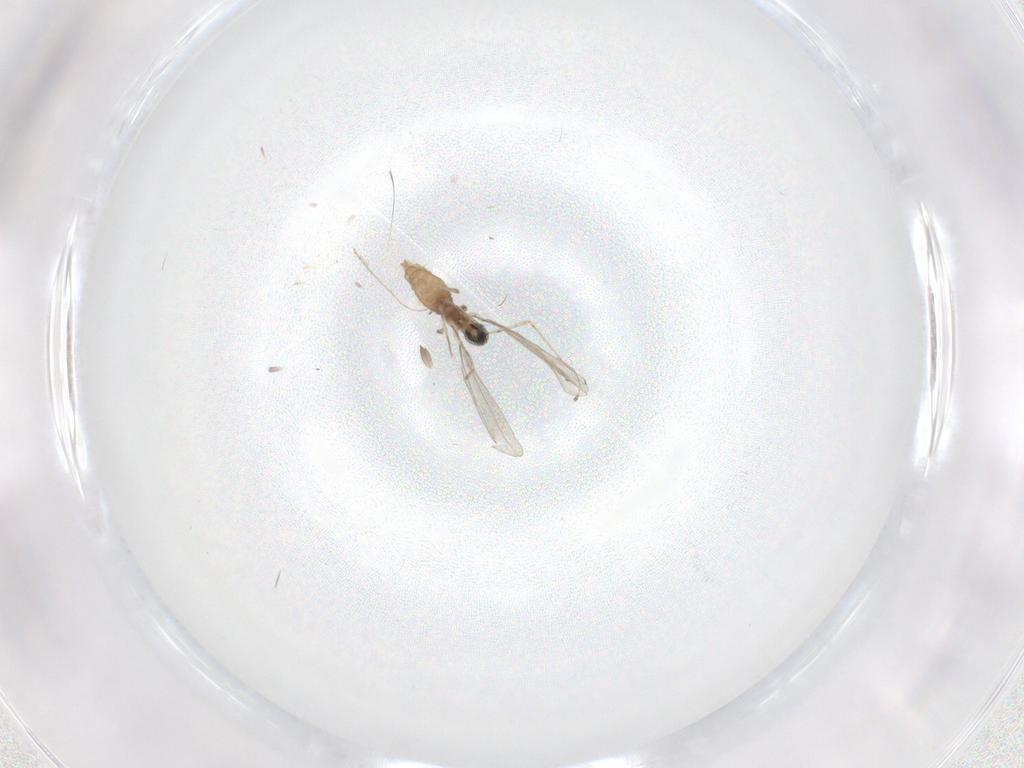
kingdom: Animalia
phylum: Arthropoda
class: Insecta
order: Diptera
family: Cecidomyiidae
